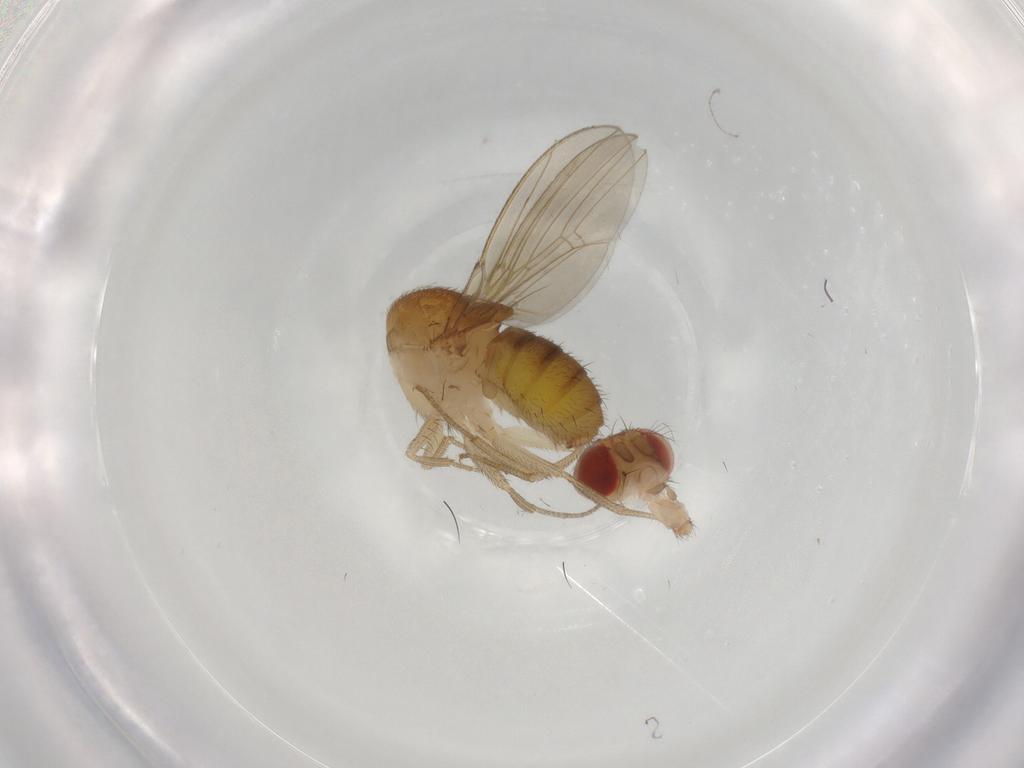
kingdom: Animalia
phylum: Arthropoda
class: Insecta
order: Diptera
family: Drosophilidae
